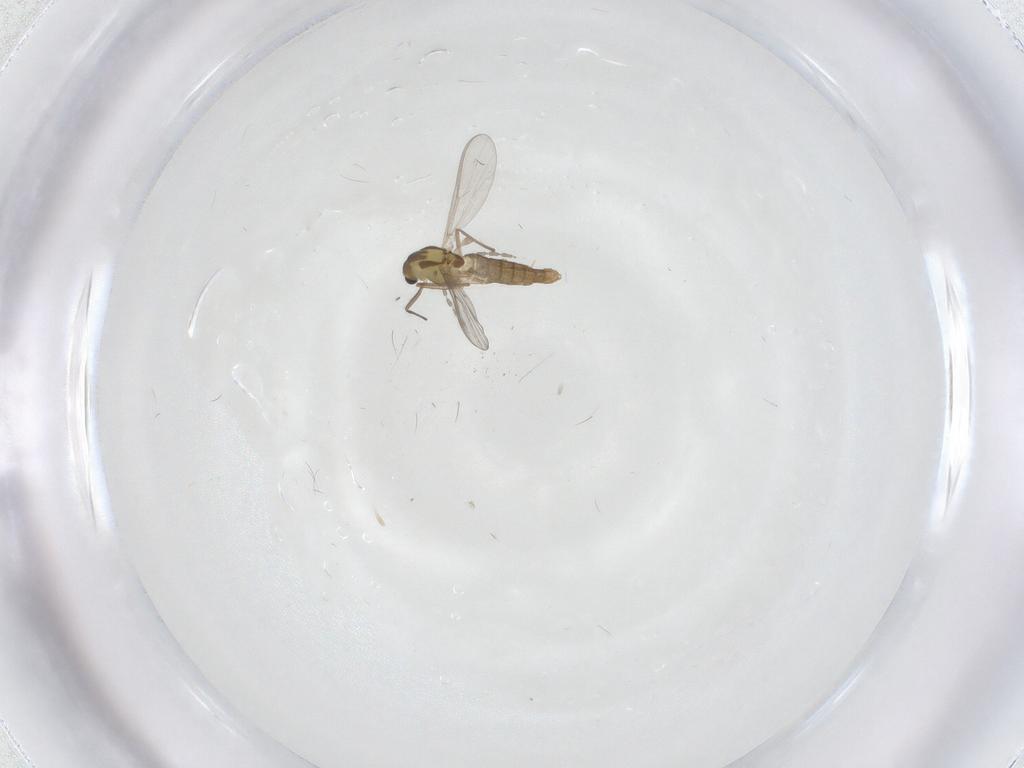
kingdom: Animalia
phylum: Arthropoda
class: Insecta
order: Diptera
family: Chironomidae
